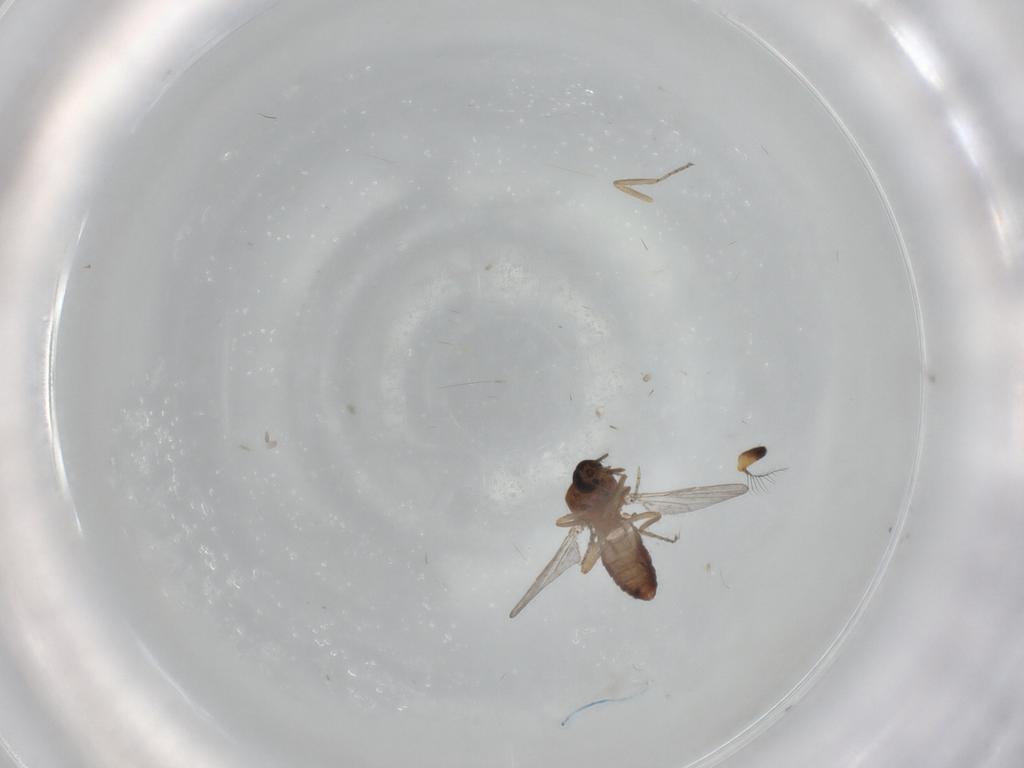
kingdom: Animalia
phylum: Arthropoda
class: Insecta
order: Diptera
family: Ceratopogonidae
